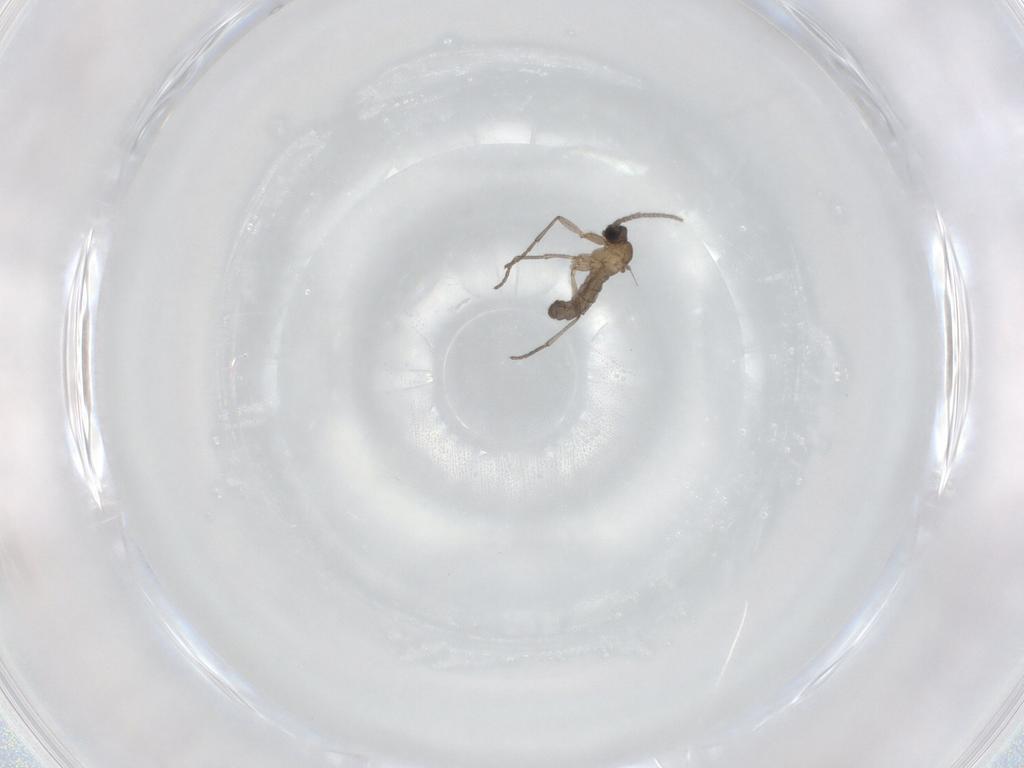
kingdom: Animalia
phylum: Arthropoda
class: Insecta
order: Diptera
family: Sciaridae
